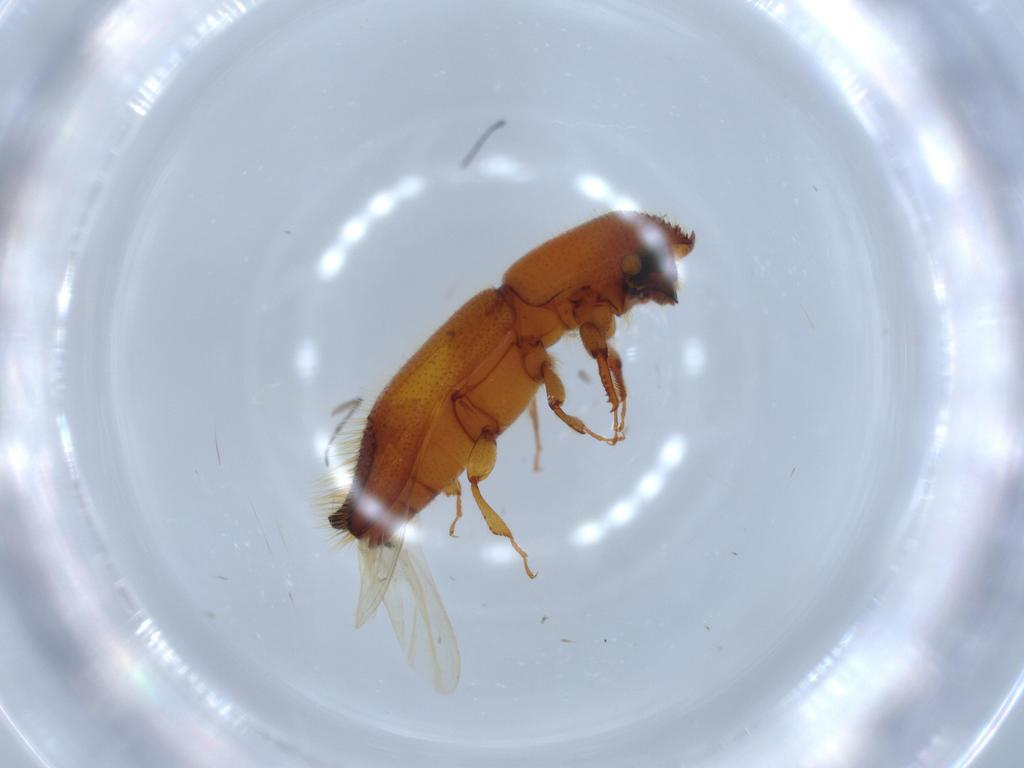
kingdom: Animalia
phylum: Arthropoda
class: Insecta
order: Coleoptera
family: Curculionidae
